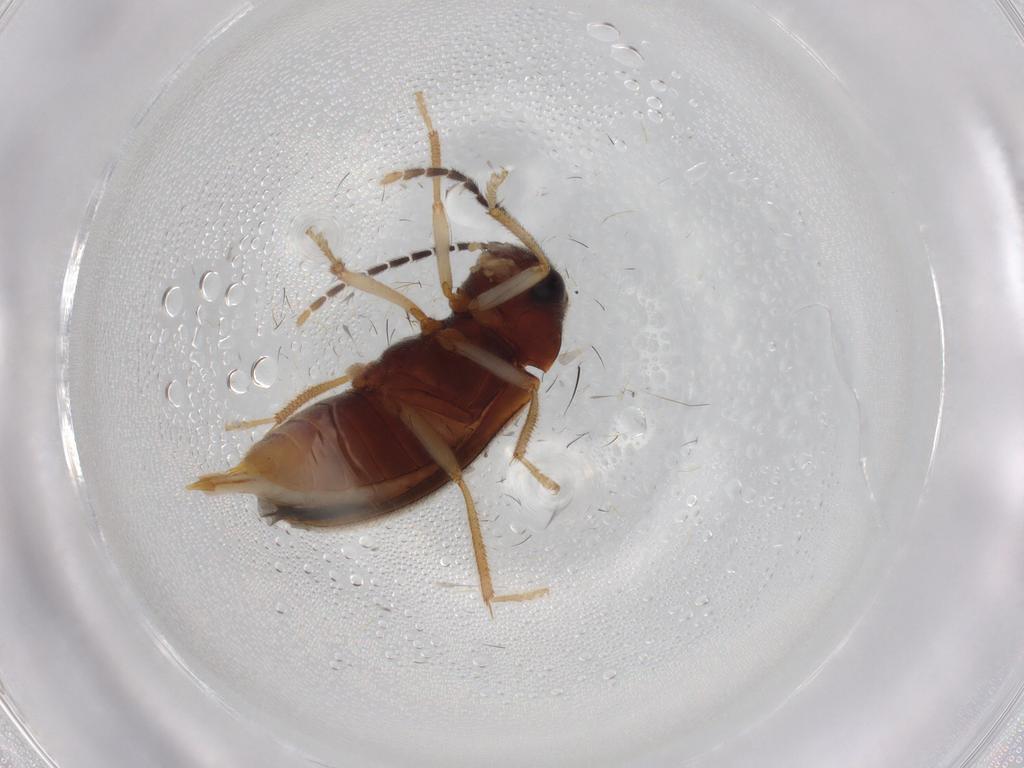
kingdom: Animalia
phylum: Arthropoda
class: Insecta
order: Coleoptera
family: Ptilodactylidae
